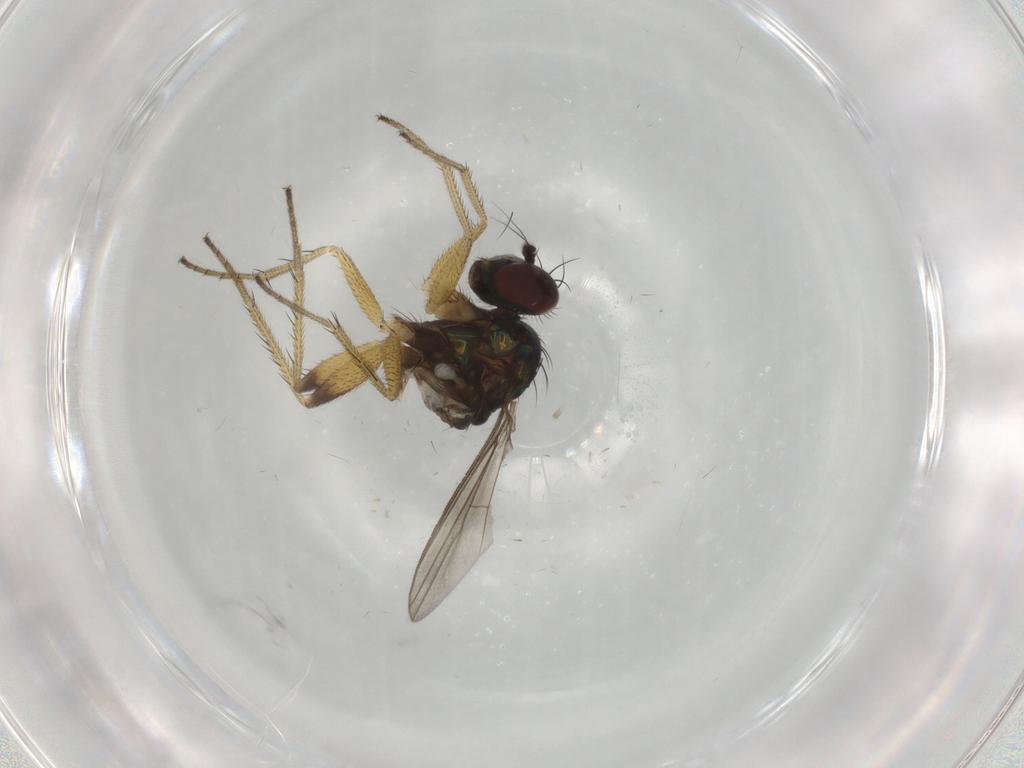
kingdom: Animalia
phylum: Arthropoda
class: Insecta
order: Diptera
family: Dolichopodidae
